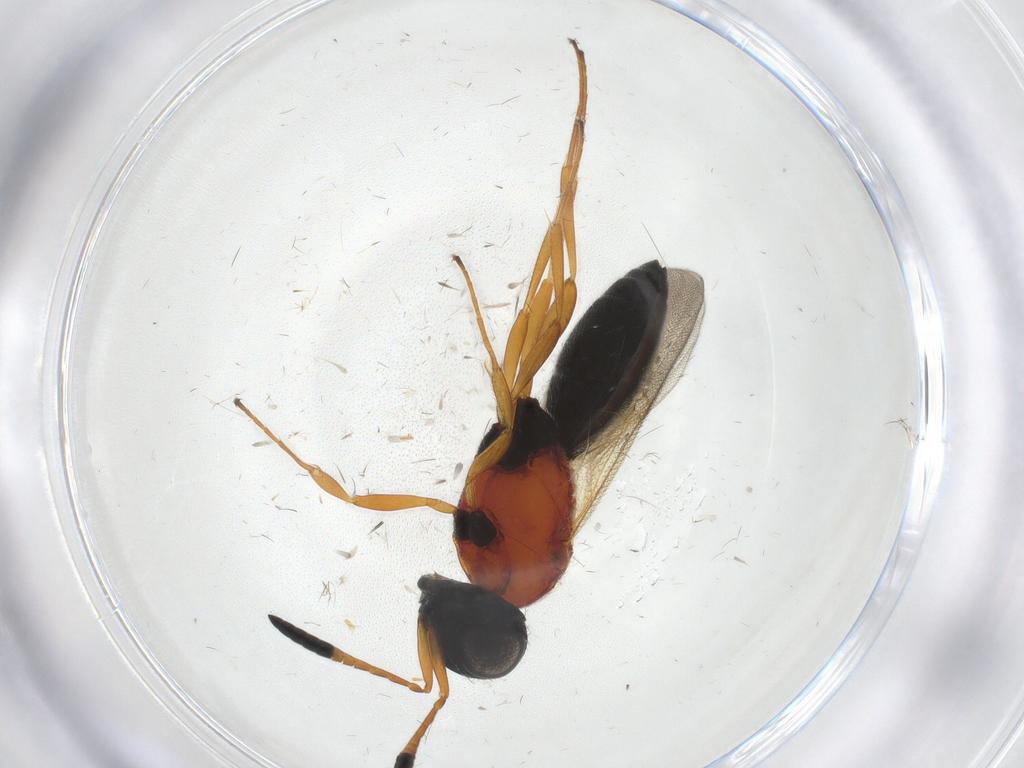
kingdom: Animalia
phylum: Arthropoda
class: Insecta
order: Hymenoptera
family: Scelionidae
